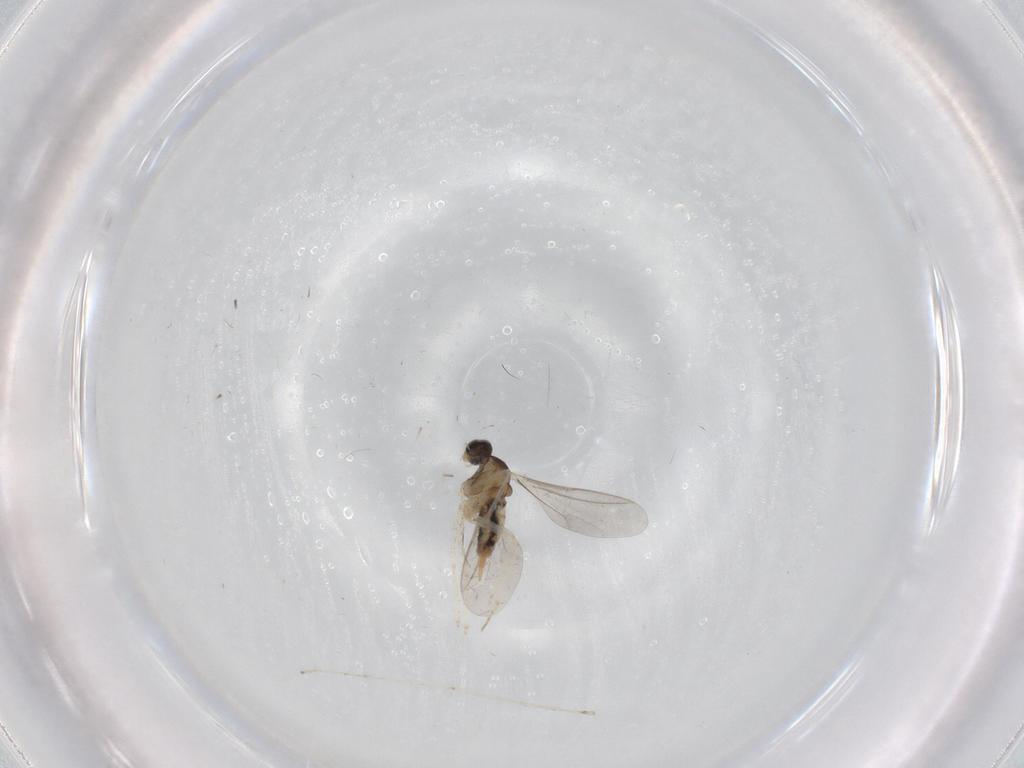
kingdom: Animalia
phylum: Arthropoda
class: Insecta
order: Diptera
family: Cecidomyiidae
